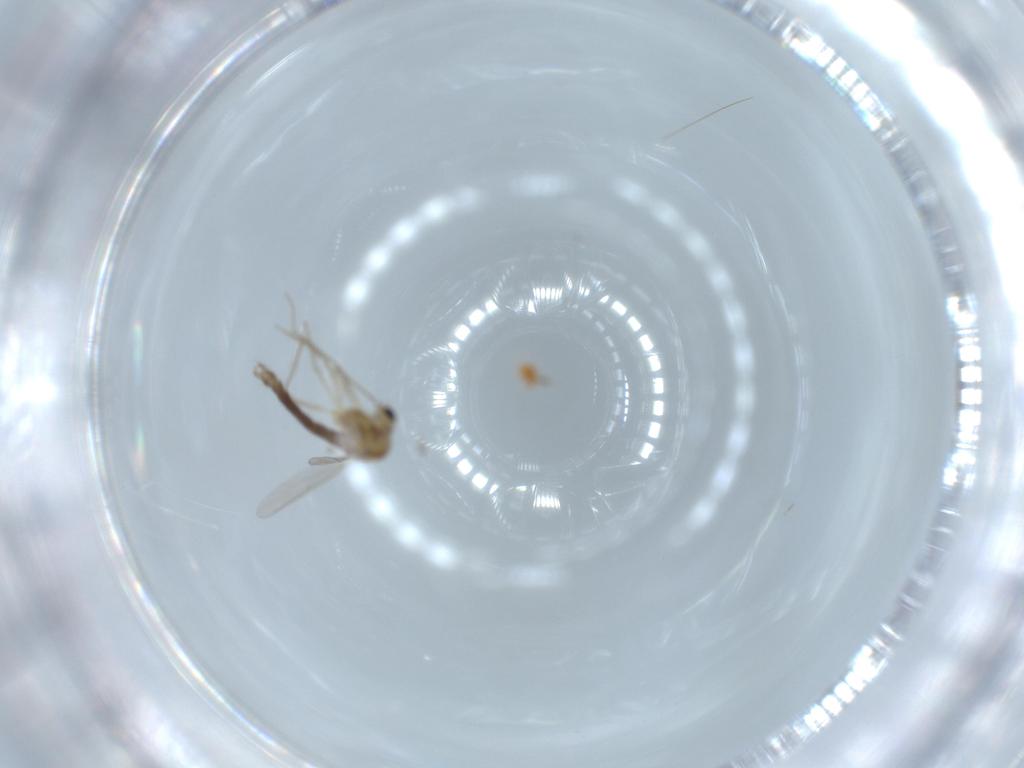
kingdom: Animalia
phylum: Arthropoda
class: Insecta
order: Diptera
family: Chironomidae
